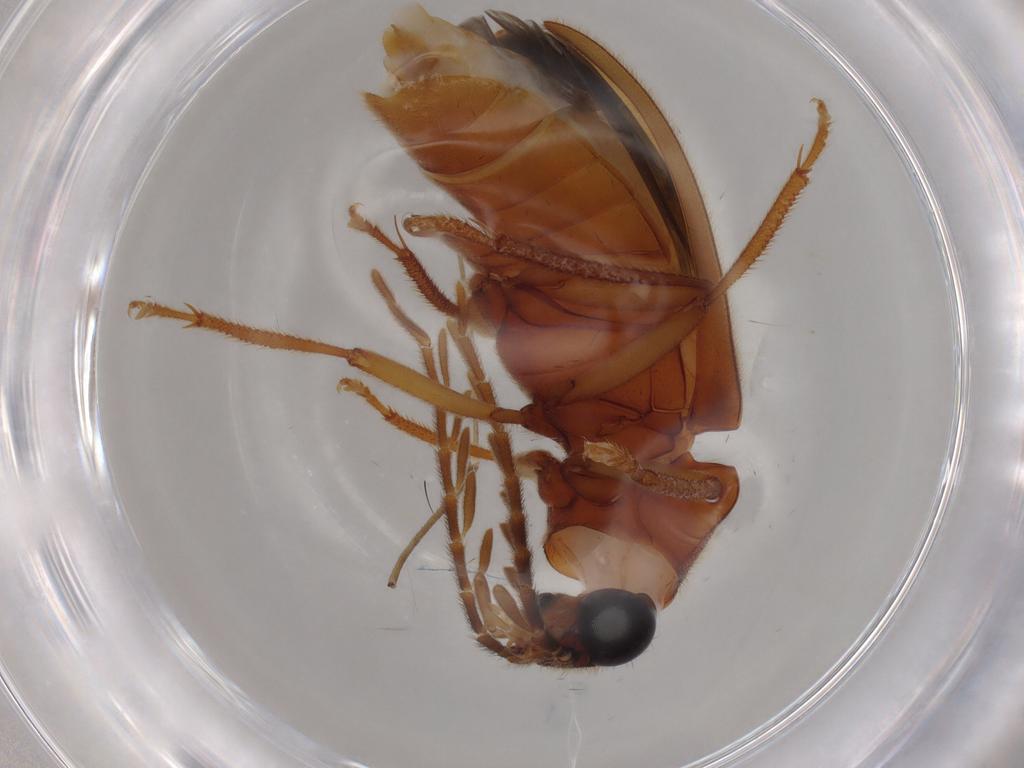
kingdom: Animalia
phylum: Arthropoda
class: Insecta
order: Coleoptera
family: Ptilodactylidae
